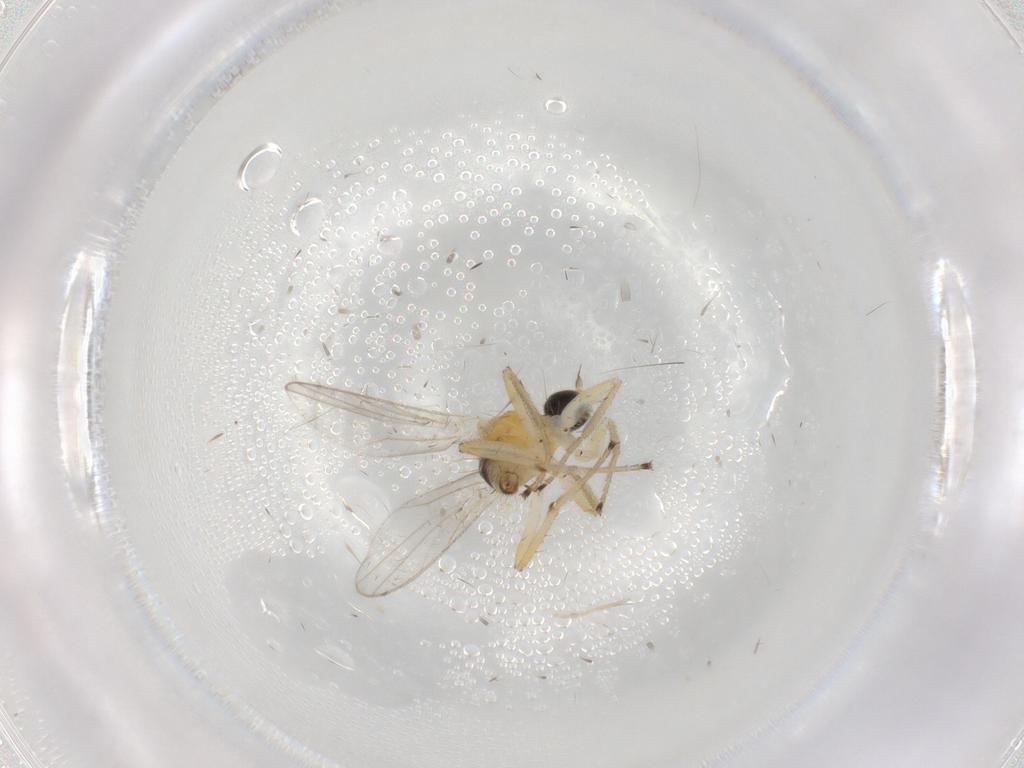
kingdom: Animalia
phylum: Arthropoda
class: Insecta
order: Diptera
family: Hybotidae
